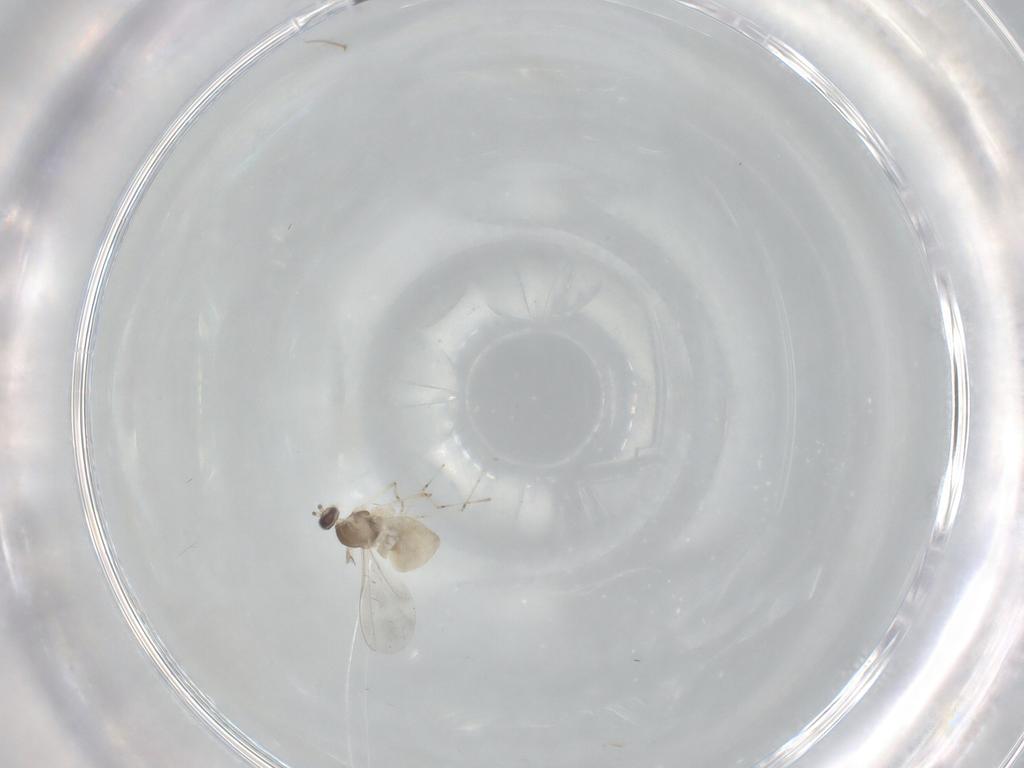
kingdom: Animalia
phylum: Arthropoda
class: Insecta
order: Diptera
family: Cecidomyiidae
